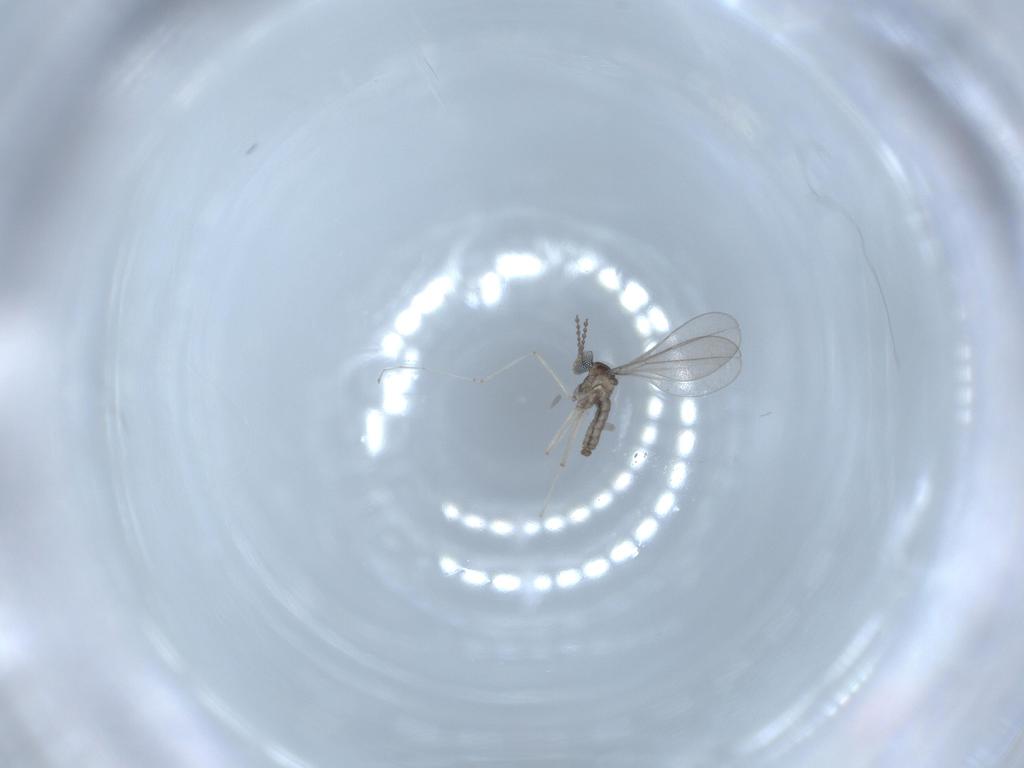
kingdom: Animalia
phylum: Arthropoda
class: Insecta
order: Diptera
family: Cecidomyiidae
